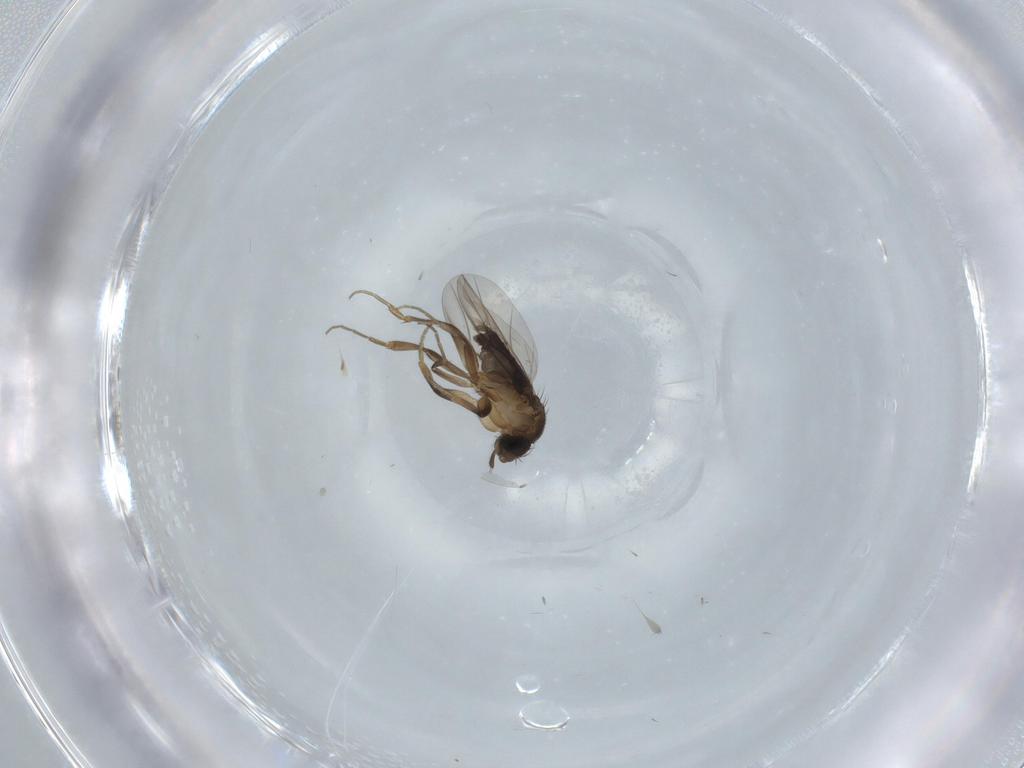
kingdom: Animalia
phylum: Arthropoda
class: Insecta
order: Diptera
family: Phoridae
